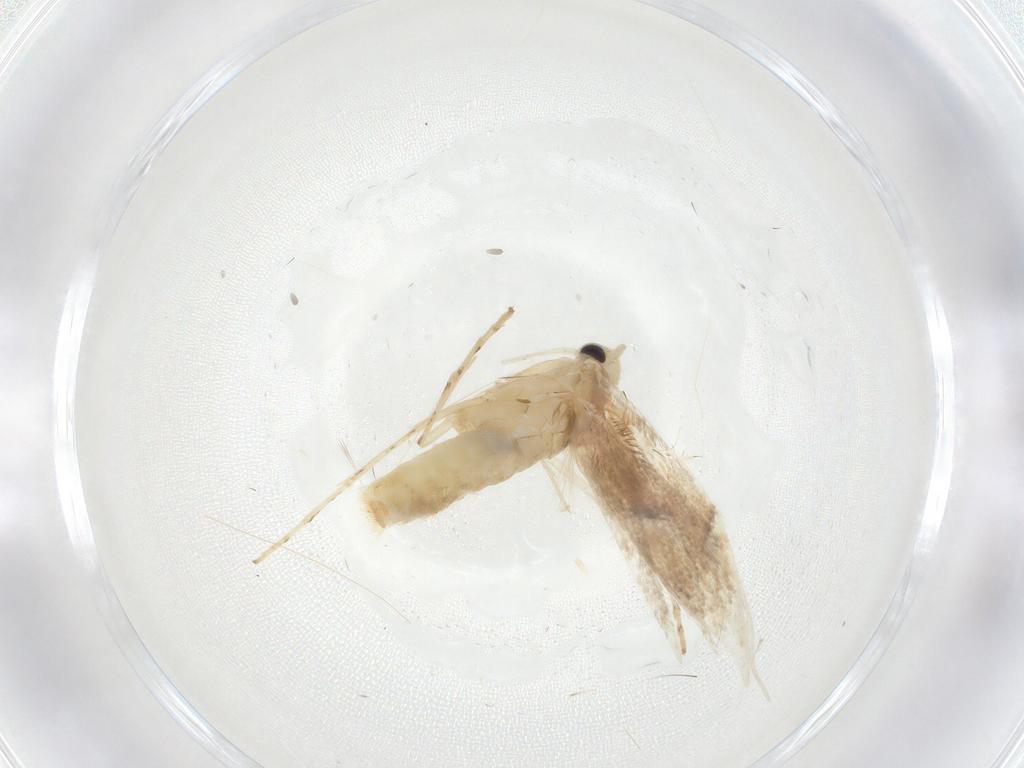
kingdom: Animalia
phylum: Arthropoda
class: Insecta
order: Lepidoptera
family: Gracillariidae
